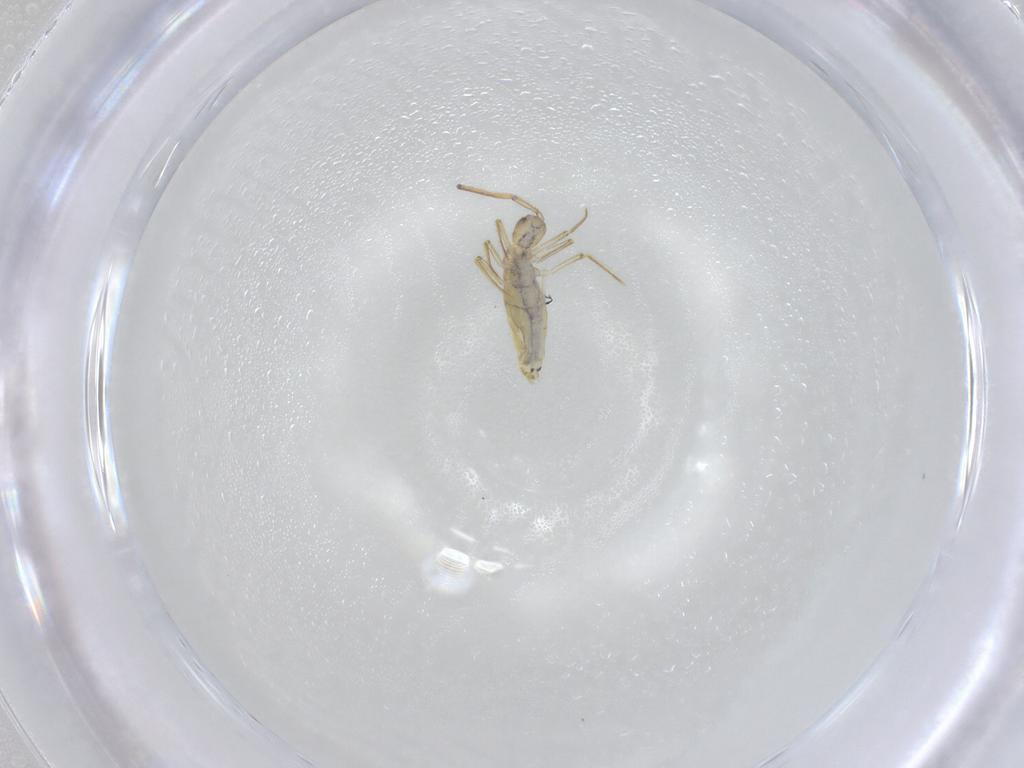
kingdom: Animalia
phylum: Arthropoda
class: Collembola
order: Entomobryomorpha
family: Entomobryidae
